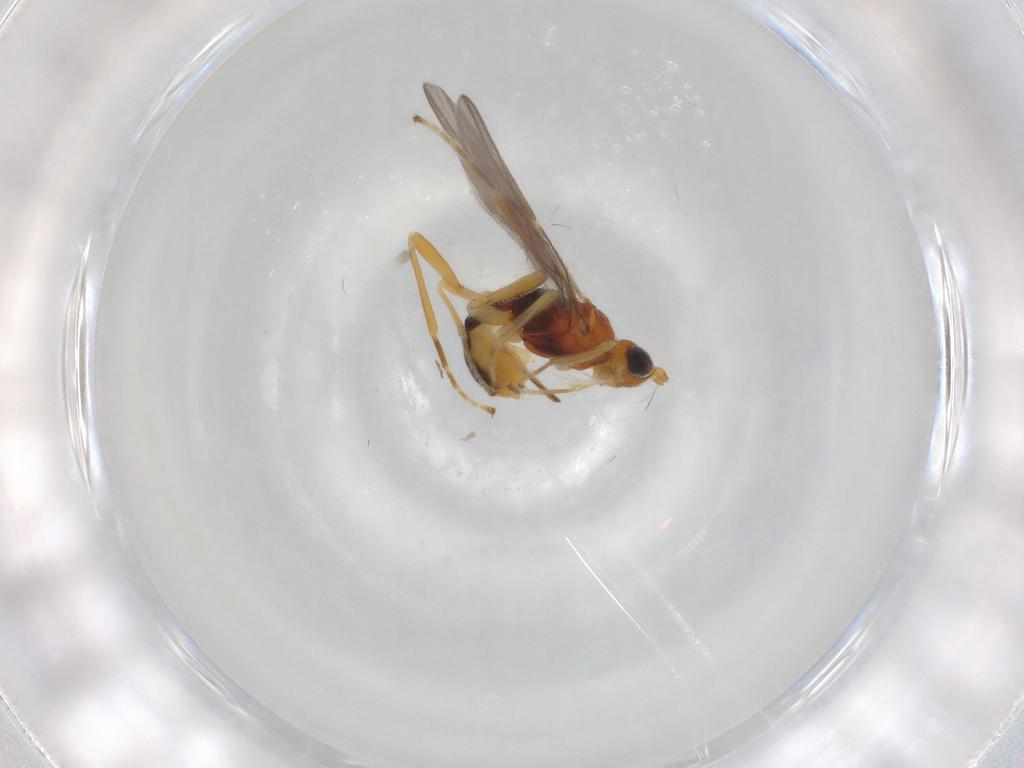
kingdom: Animalia
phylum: Arthropoda
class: Insecta
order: Hymenoptera
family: Braconidae
